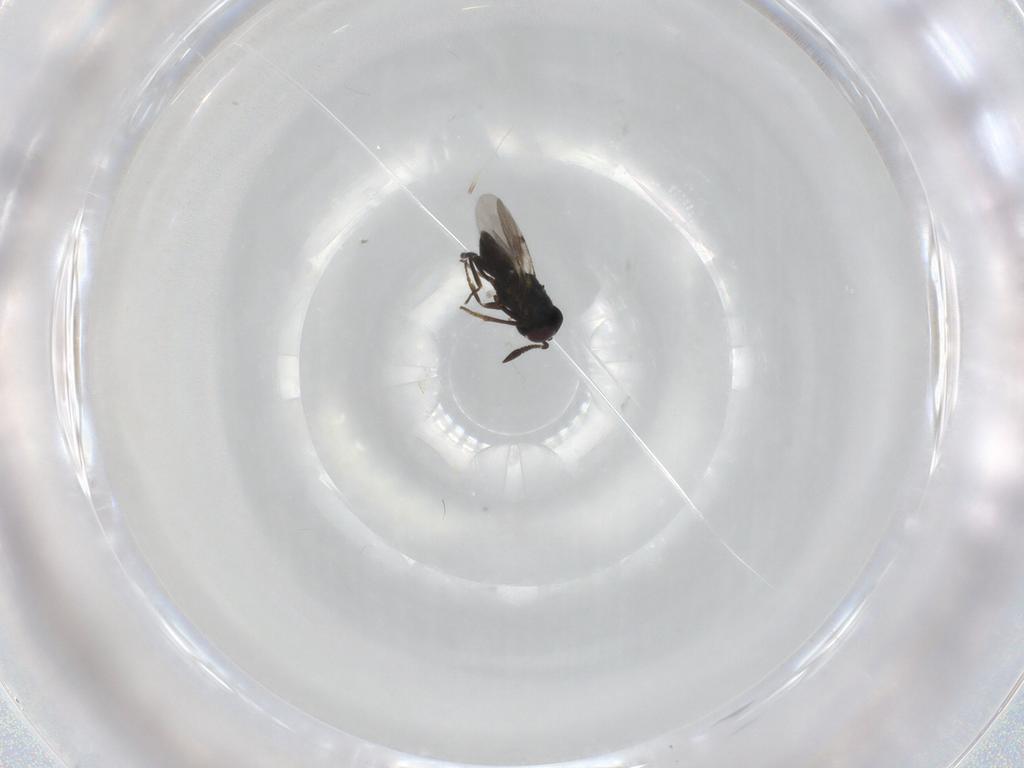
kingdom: Animalia
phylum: Arthropoda
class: Insecta
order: Hymenoptera
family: Encyrtidae
